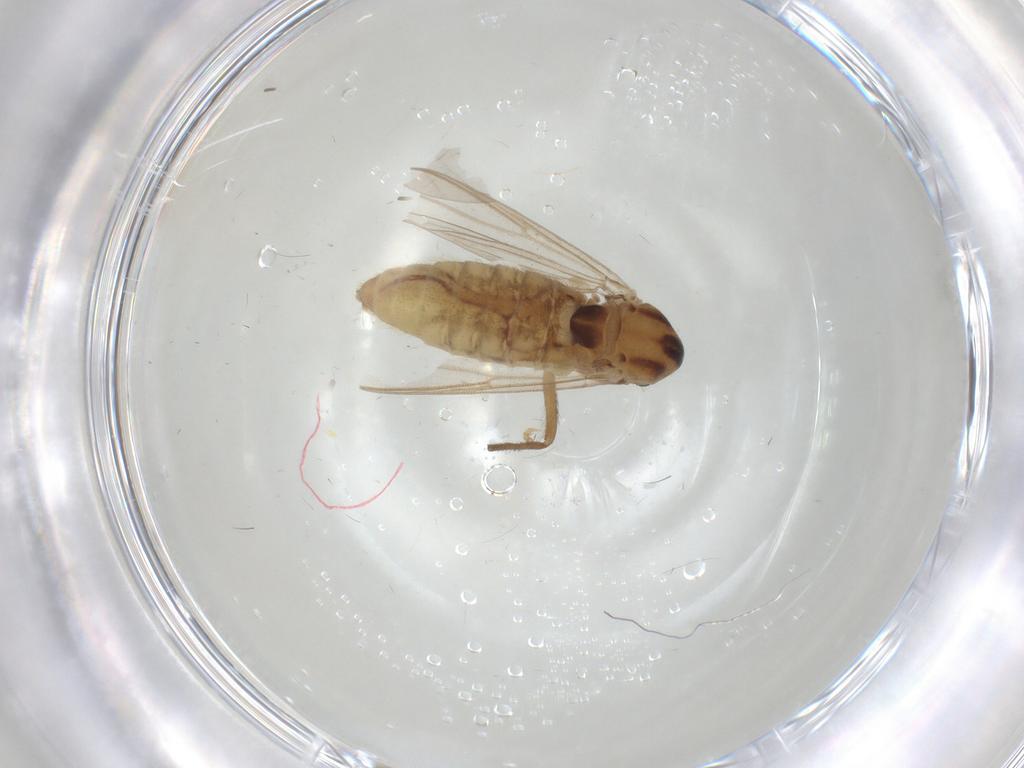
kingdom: Animalia
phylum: Arthropoda
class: Insecta
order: Diptera
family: Chironomidae
